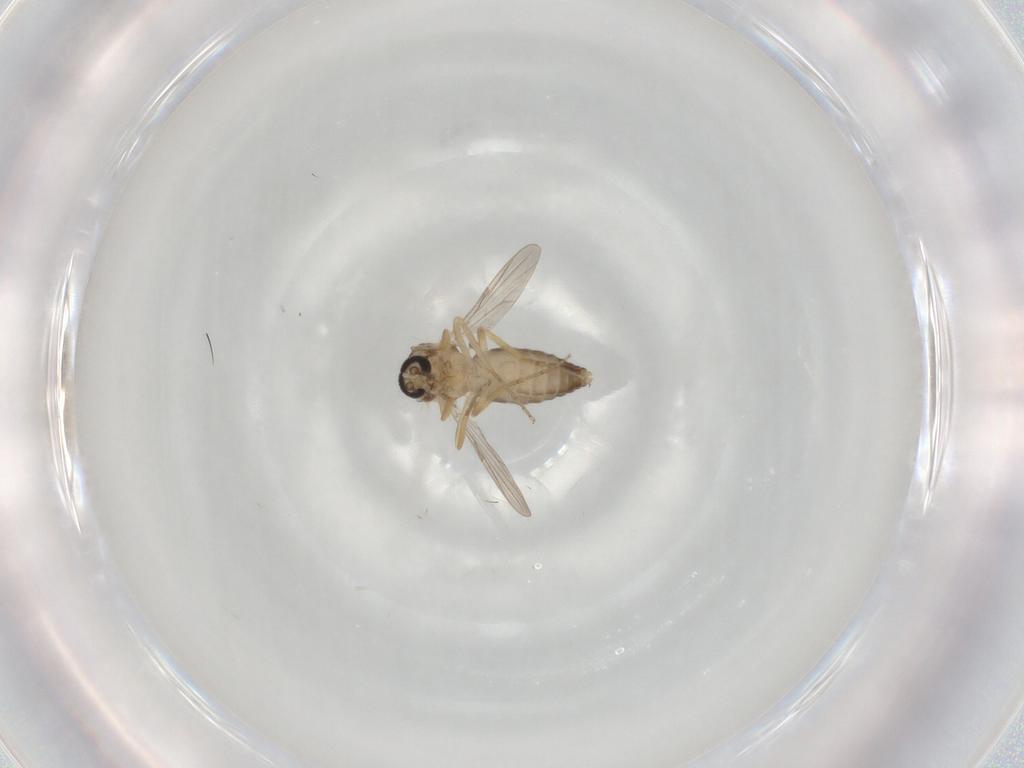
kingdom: Animalia
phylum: Arthropoda
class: Insecta
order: Diptera
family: Ceratopogonidae
